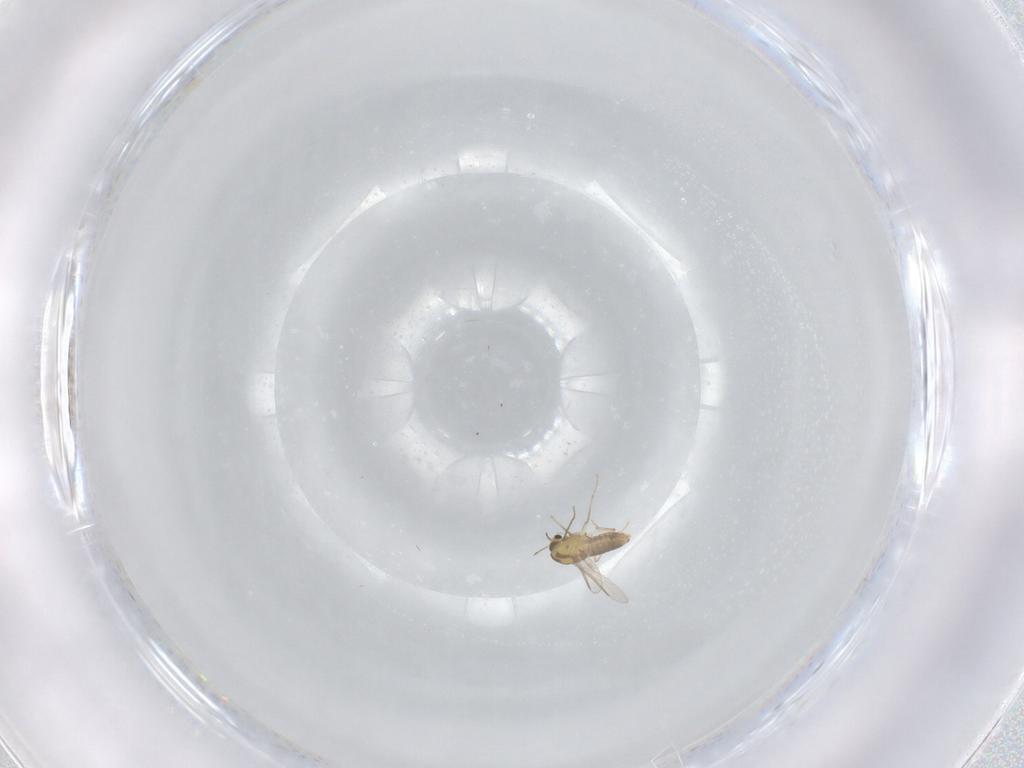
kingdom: Animalia
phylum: Arthropoda
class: Insecta
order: Diptera
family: Chironomidae
